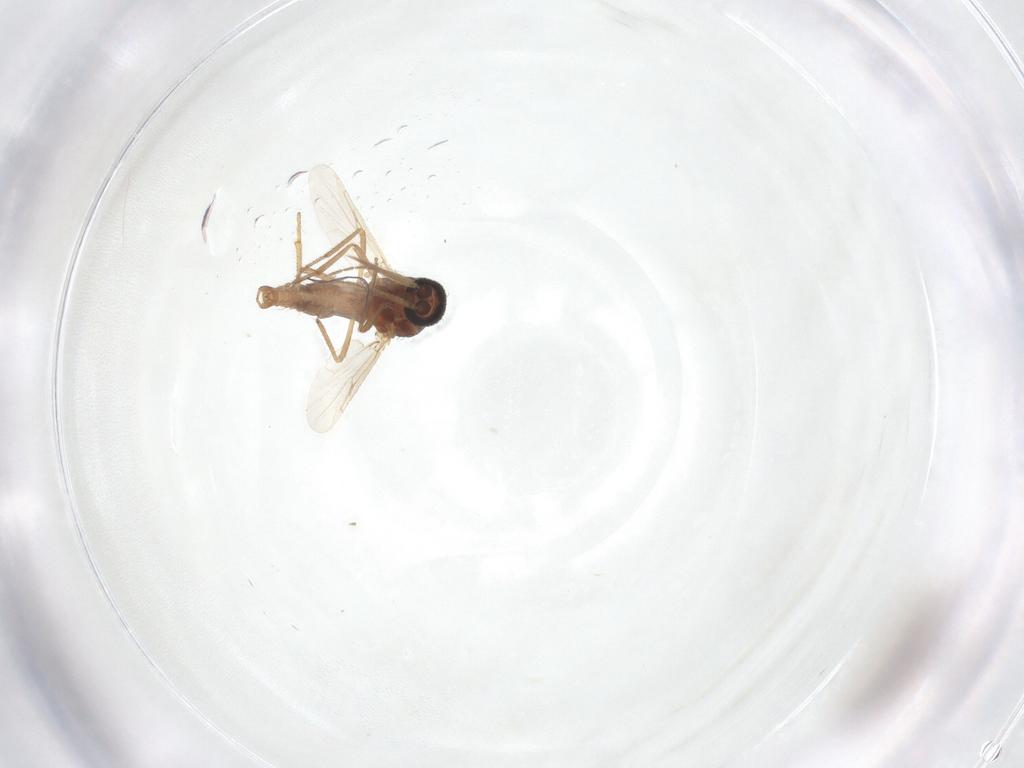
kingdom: Animalia
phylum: Arthropoda
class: Insecta
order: Diptera
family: Ceratopogonidae
